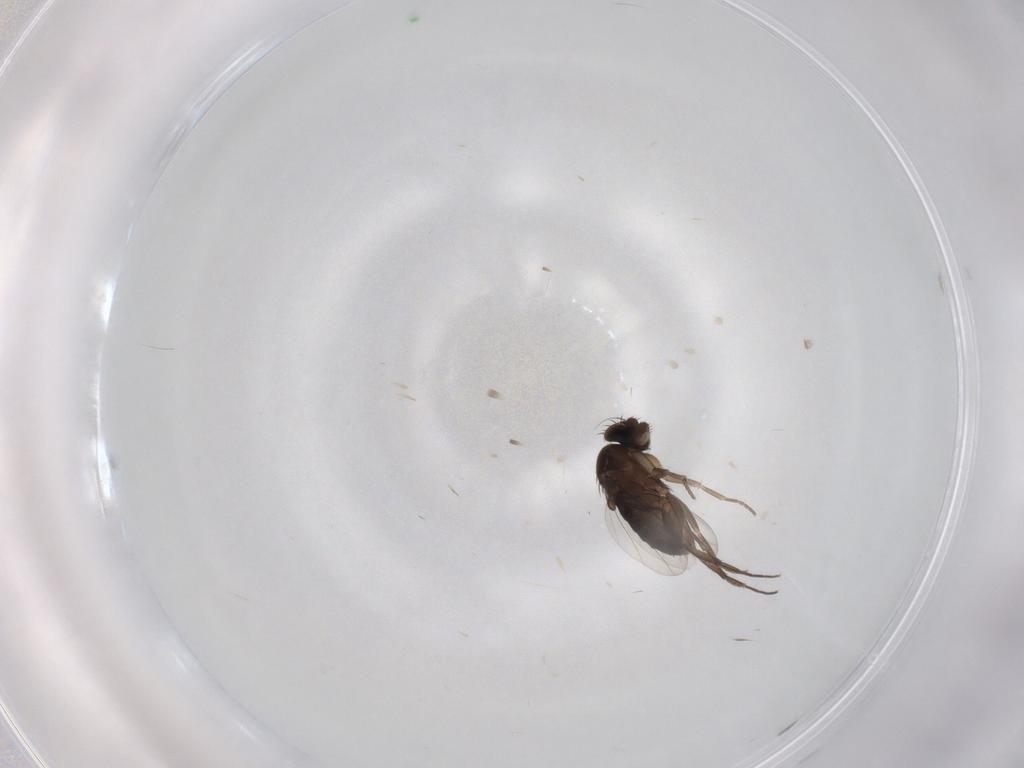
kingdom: Animalia
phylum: Arthropoda
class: Insecta
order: Diptera
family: Phoridae
